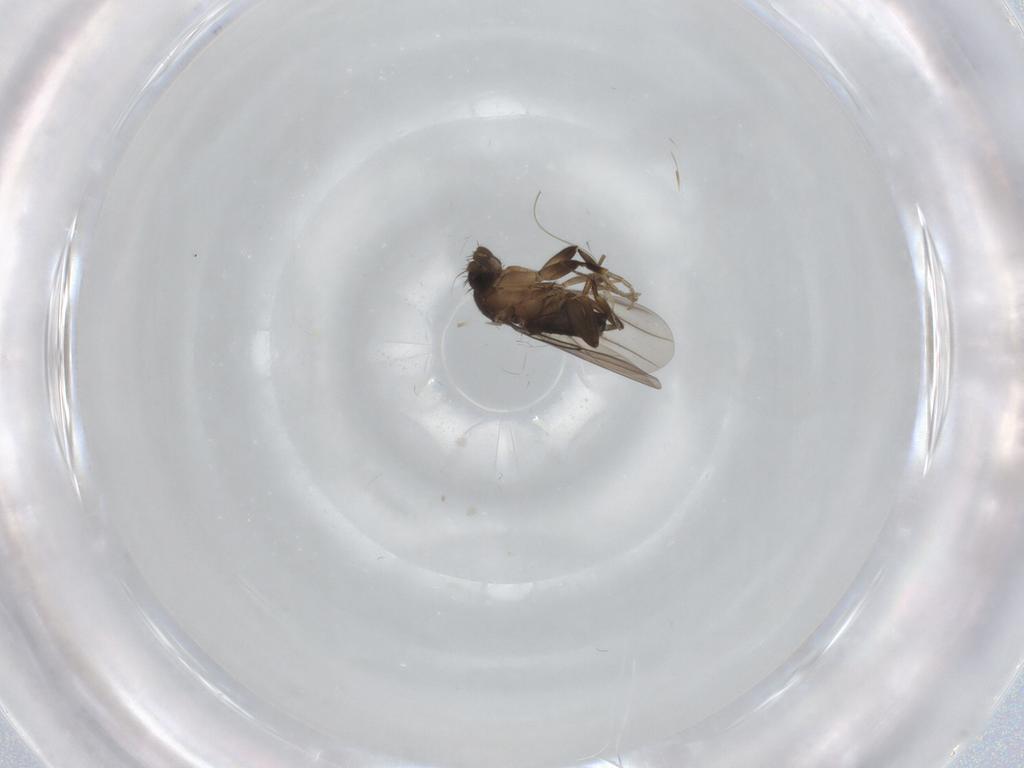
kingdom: Animalia
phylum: Arthropoda
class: Insecta
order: Diptera
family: Phoridae
